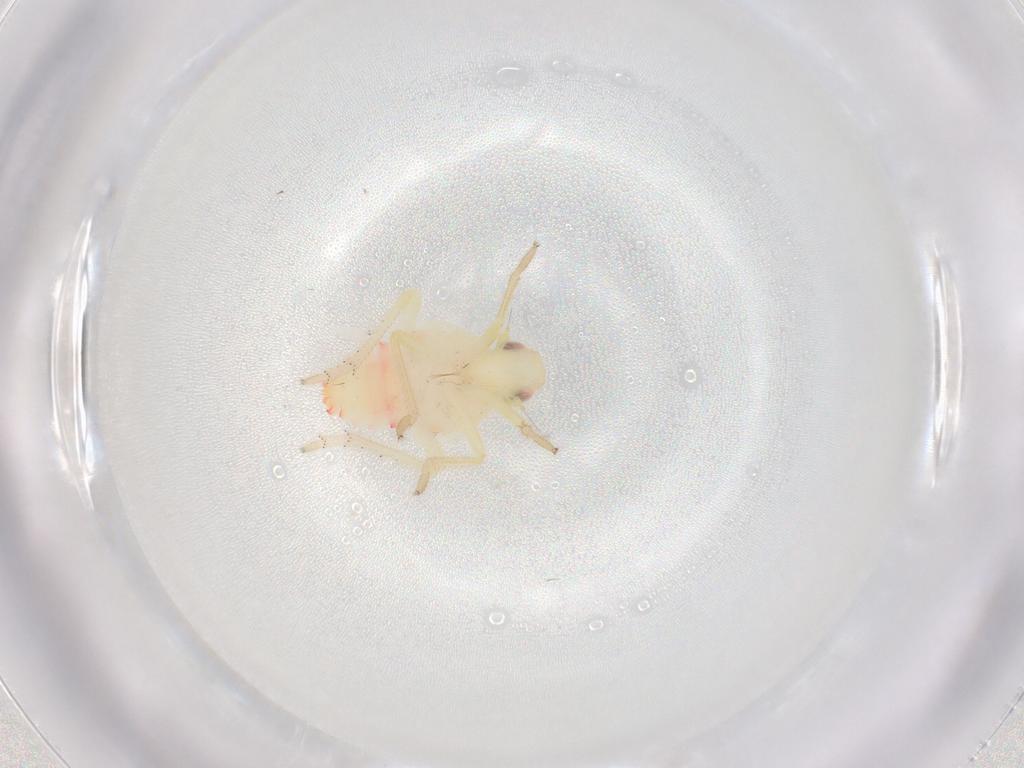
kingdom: Animalia
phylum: Arthropoda
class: Insecta
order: Hemiptera
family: Tropiduchidae
